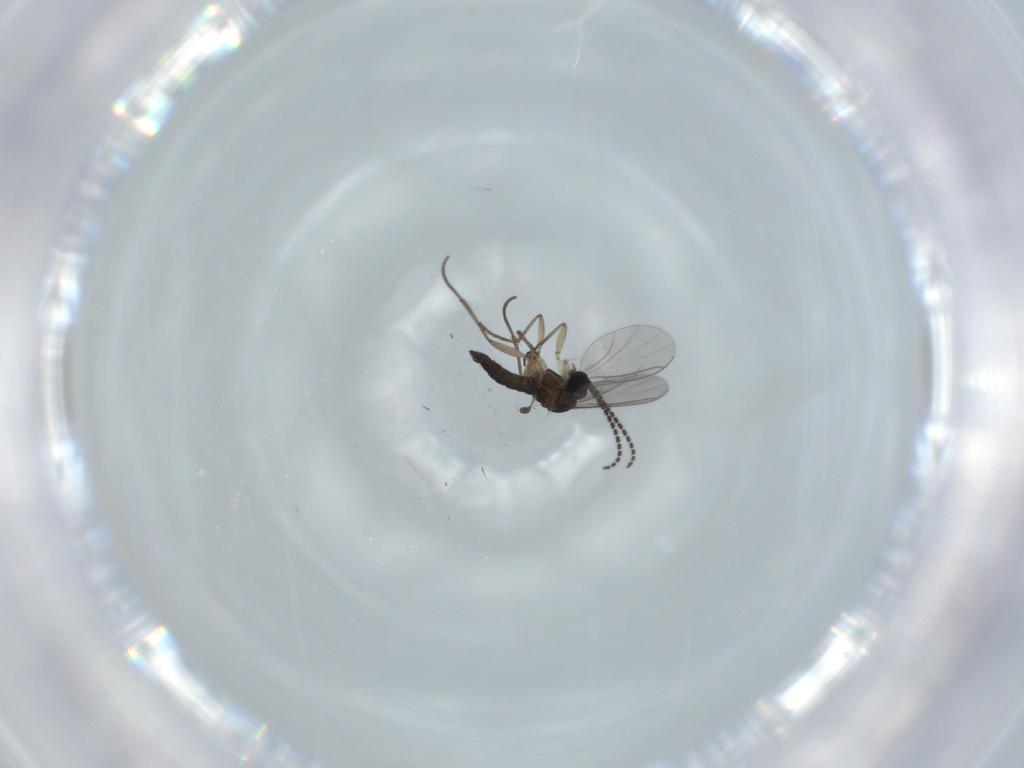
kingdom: Animalia
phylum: Arthropoda
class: Insecta
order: Diptera
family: Sciaridae
